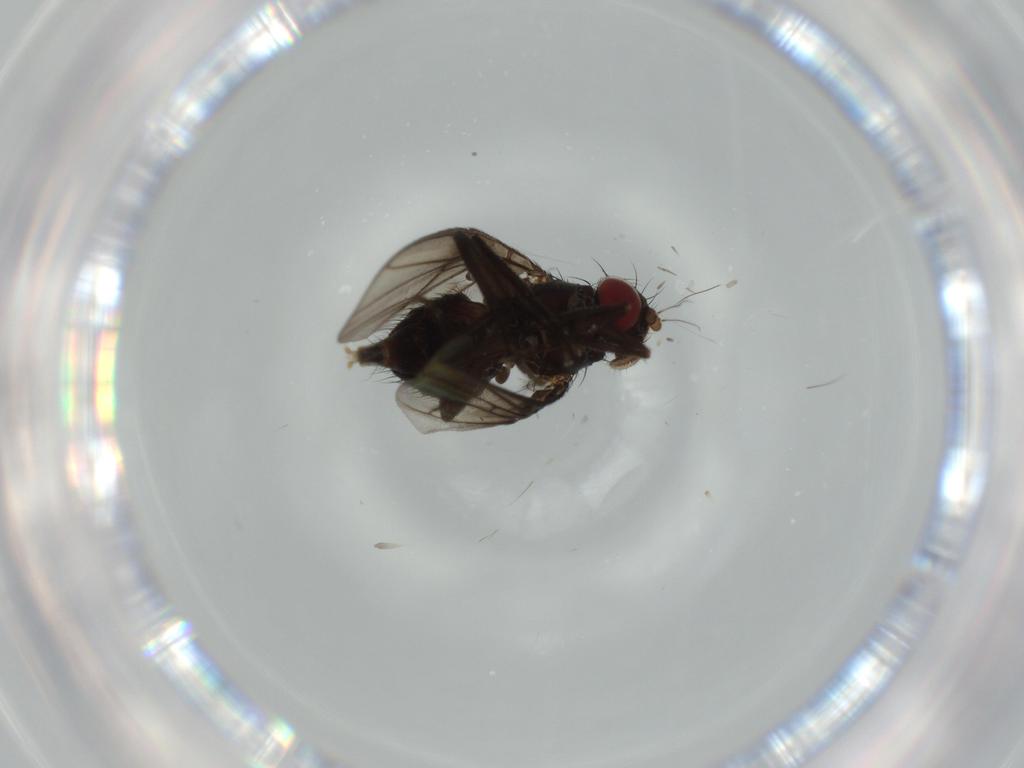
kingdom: Animalia
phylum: Arthropoda
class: Insecta
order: Diptera
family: Agromyzidae
